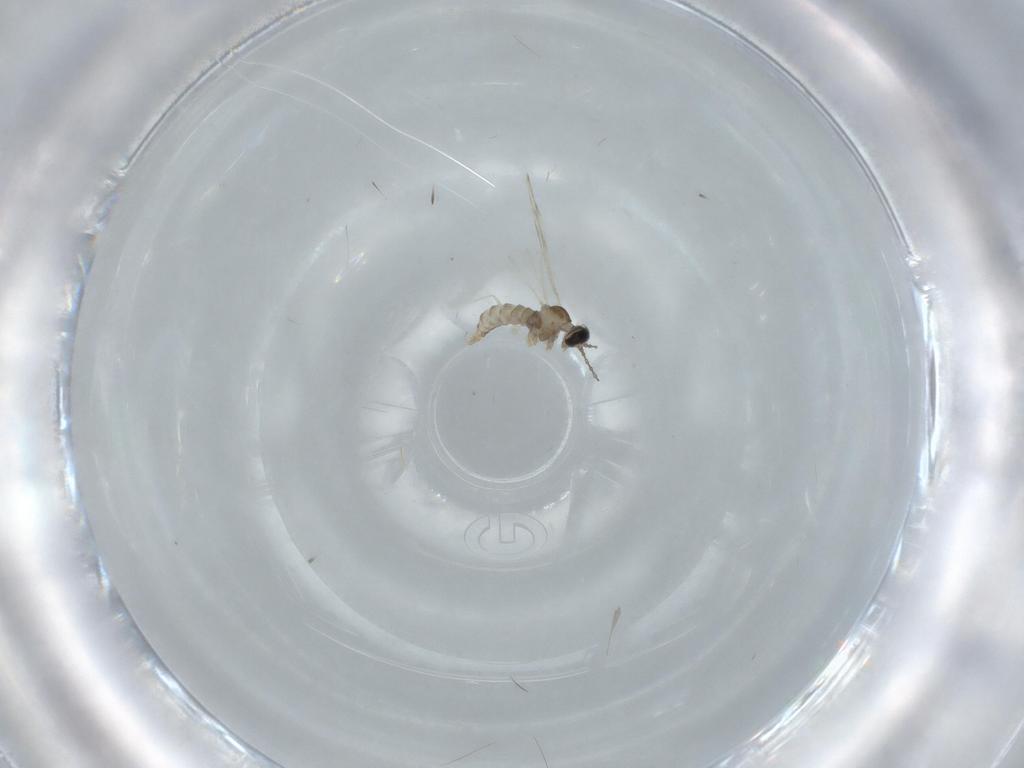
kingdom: Animalia
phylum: Arthropoda
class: Insecta
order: Diptera
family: Cecidomyiidae
